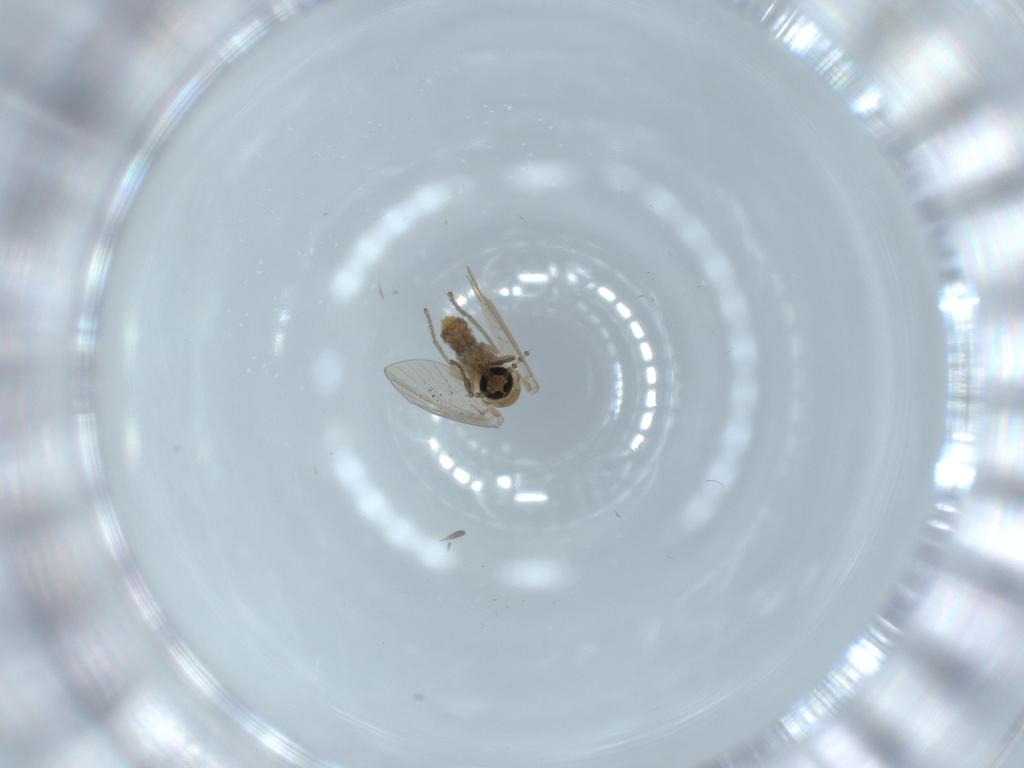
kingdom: Animalia
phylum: Arthropoda
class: Insecta
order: Diptera
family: Psychodidae
